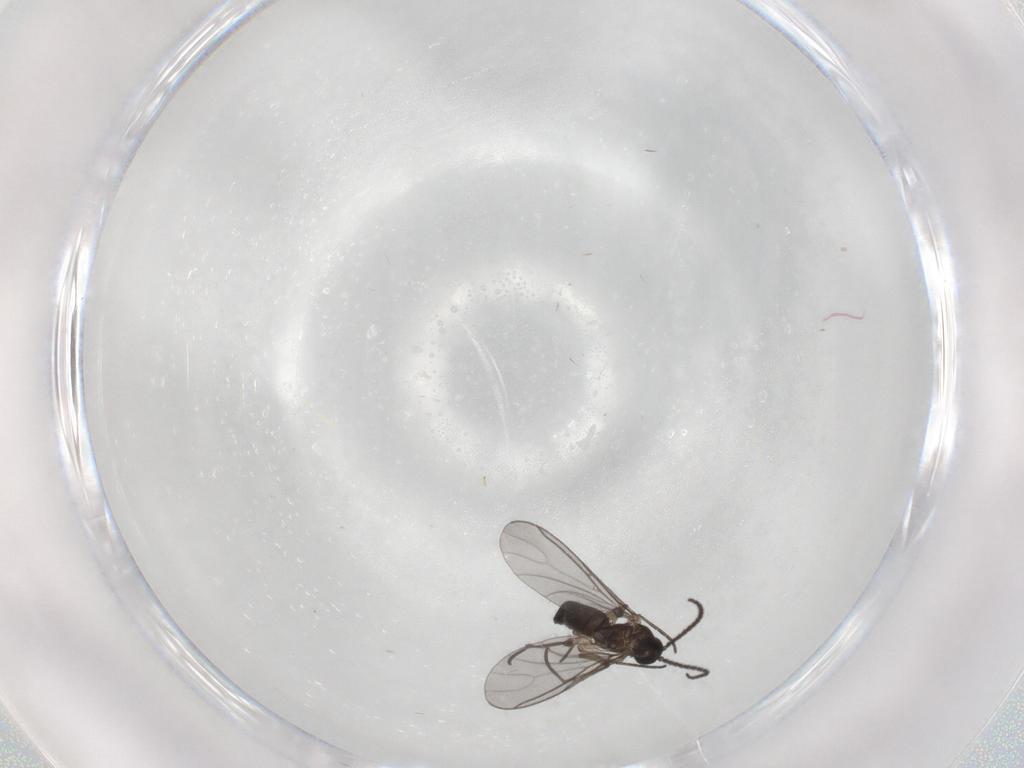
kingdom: Animalia
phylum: Arthropoda
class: Insecta
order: Diptera
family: Sciaridae
